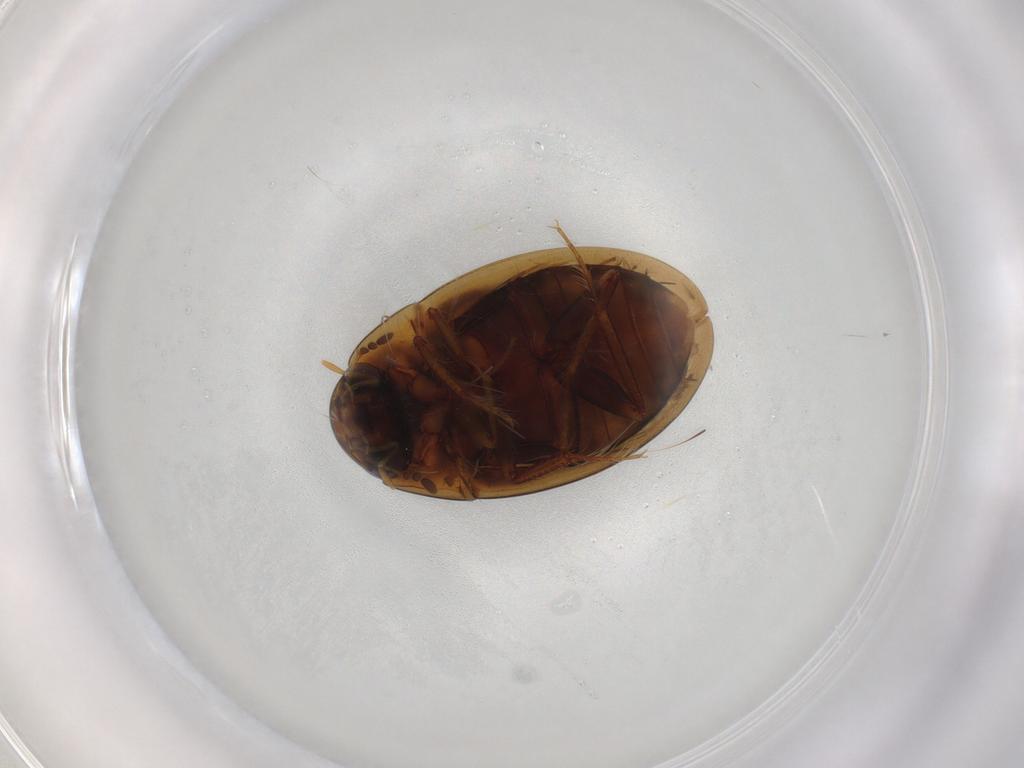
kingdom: Animalia
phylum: Arthropoda
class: Insecta
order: Coleoptera
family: Hydrophilidae
